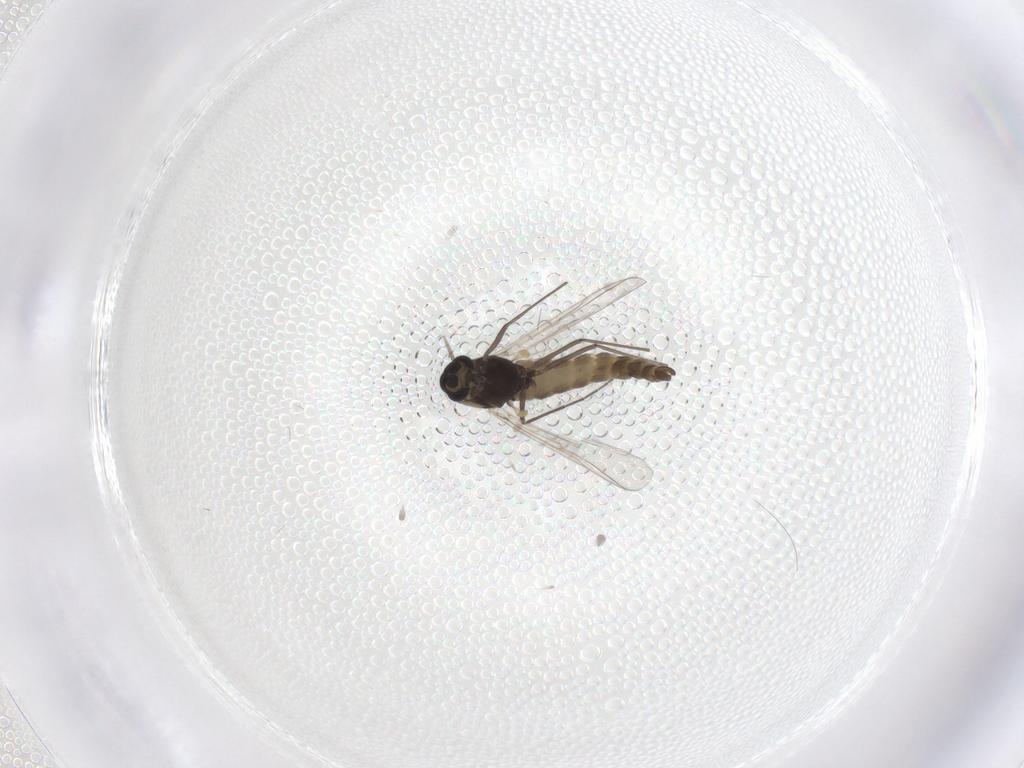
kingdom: Animalia
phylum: Arthropoda
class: Insecta
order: Diptera
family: Chironomidae
